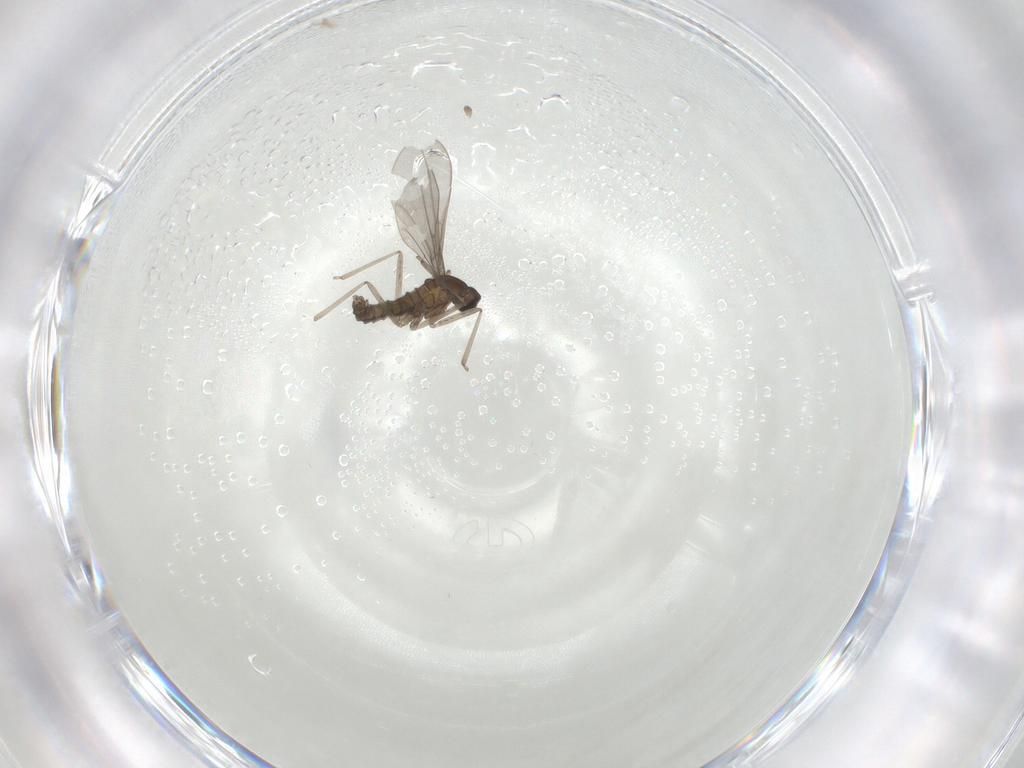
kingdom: Animalia
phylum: Arthropoda
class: Insecta
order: Diptera
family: Cecidomyiidae
